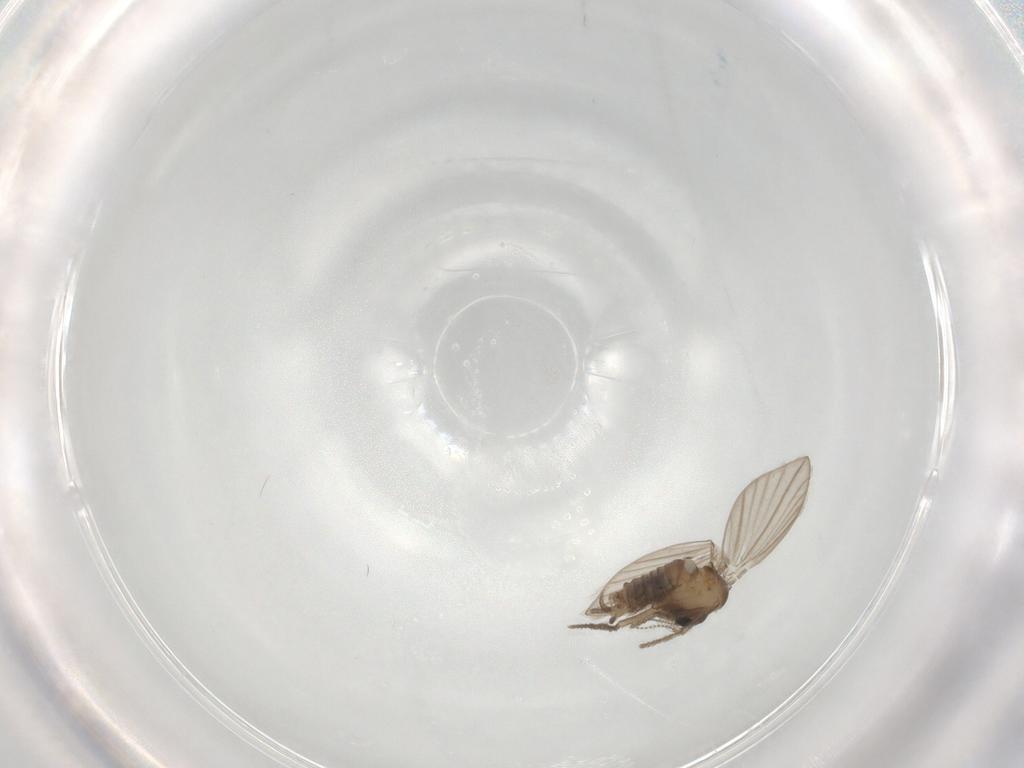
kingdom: Animalia
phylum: Arthropoda
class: Insecta
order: Diptera
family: Psychodidae
